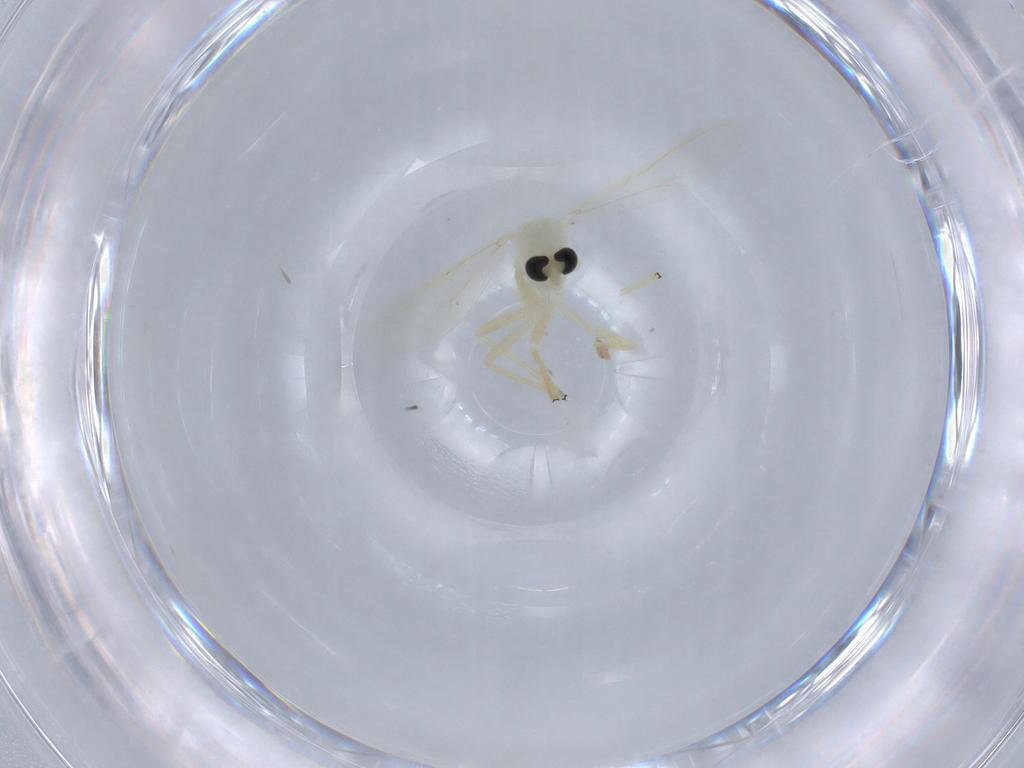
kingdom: Animalia
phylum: Arthropoda
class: Insecta
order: Diptera
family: Chironomidae
